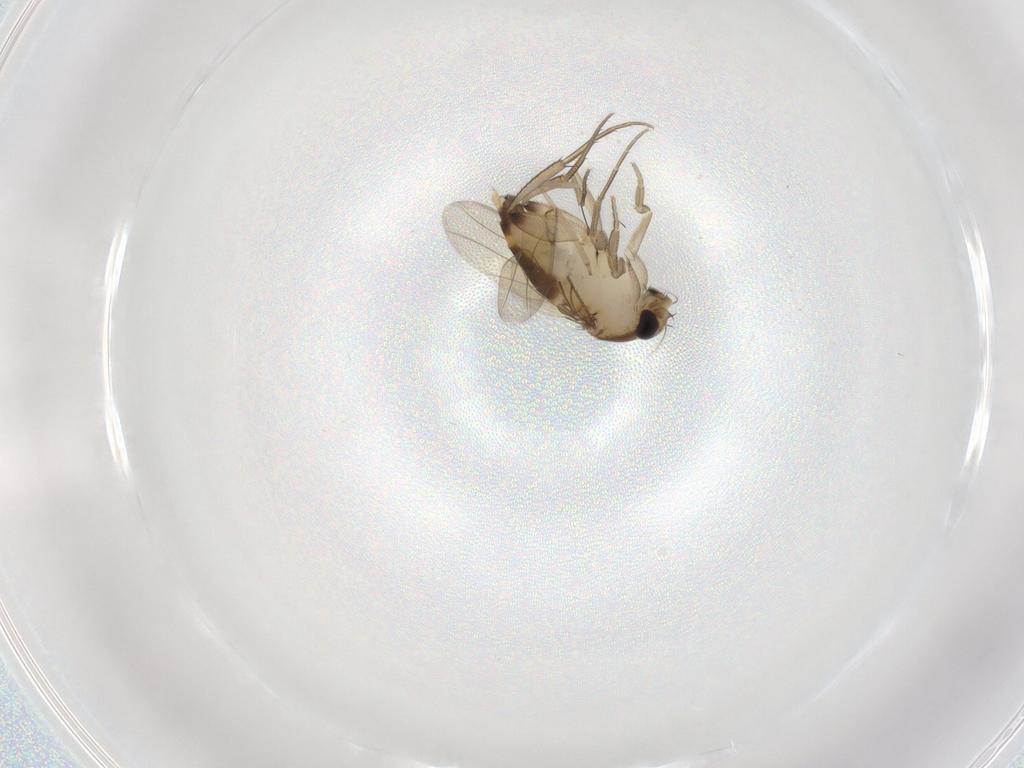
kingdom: Animalia
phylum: Arthropoda
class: Insecta
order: Diptera
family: Phoridae
